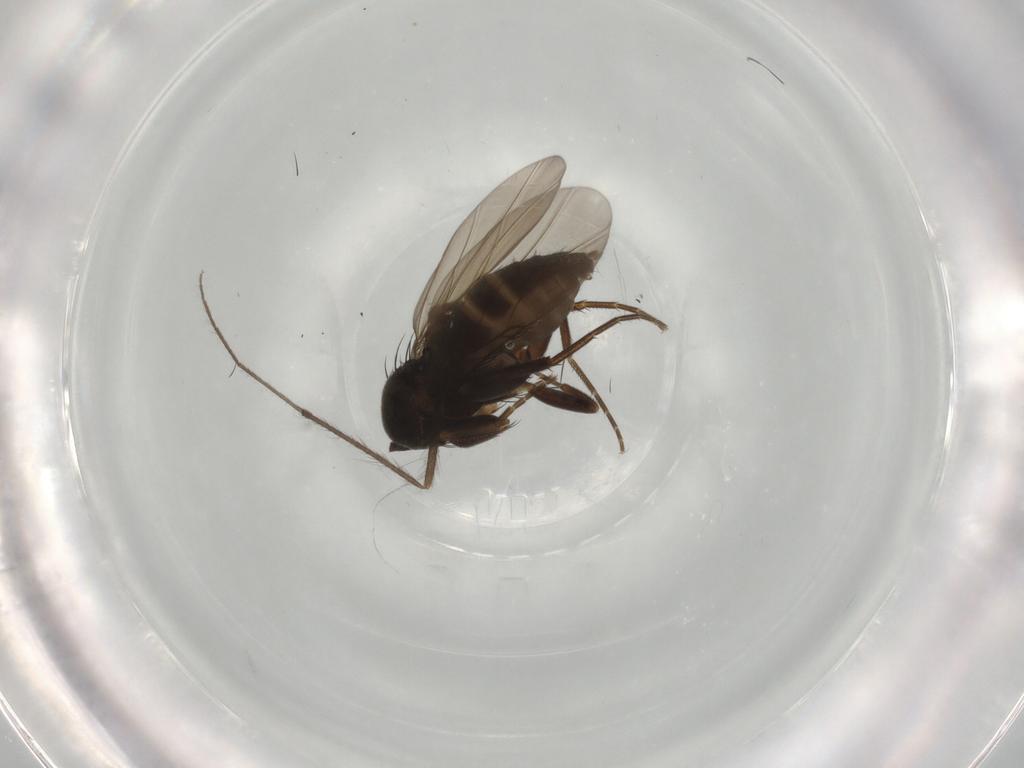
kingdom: Animalia
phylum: Arthropoda
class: Insecta
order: Diptera
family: Phoridae
